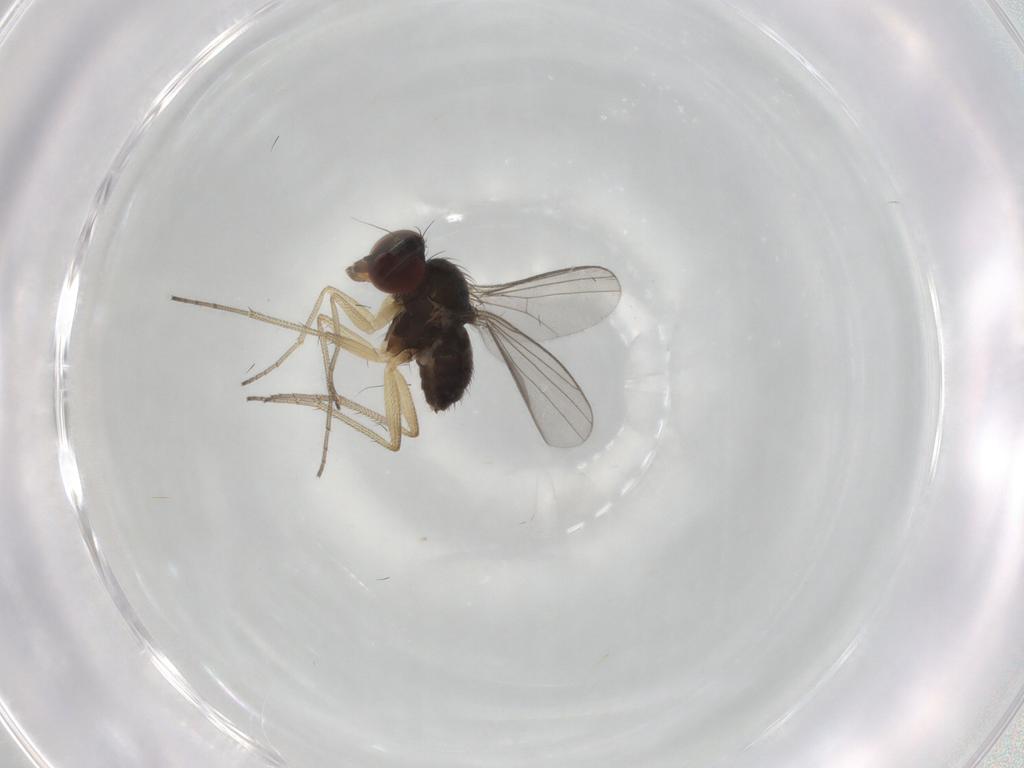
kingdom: Animalia
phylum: Arthropoda
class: Insecta
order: Diptera
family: Dolichopodidae
